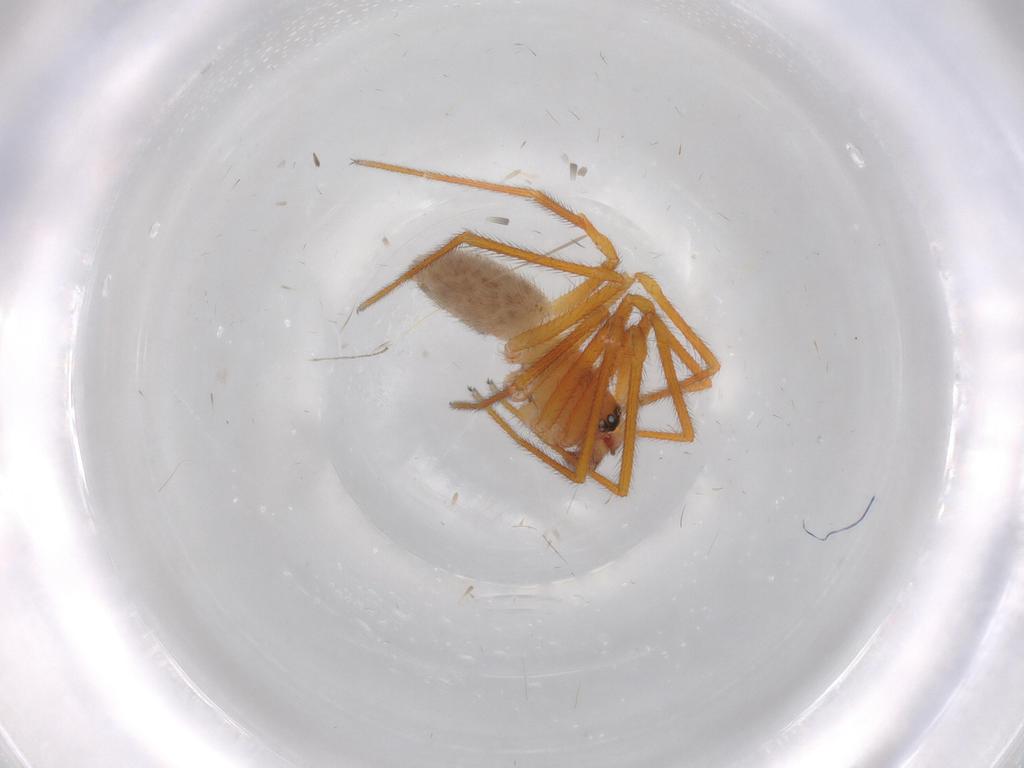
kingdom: Animalia
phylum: Arthropoda
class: Arachnida
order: Araneae
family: Linyphiidae
